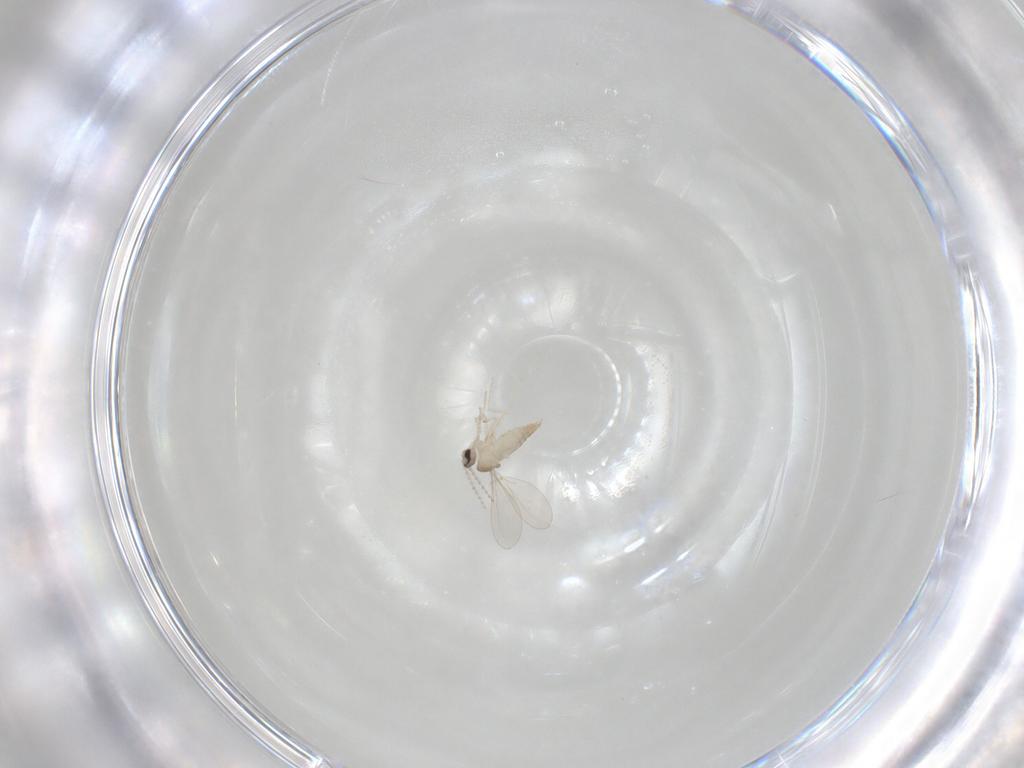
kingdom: Animalia
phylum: Arthropoda
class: Insecta
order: Diptera
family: Cecidomyiidae
